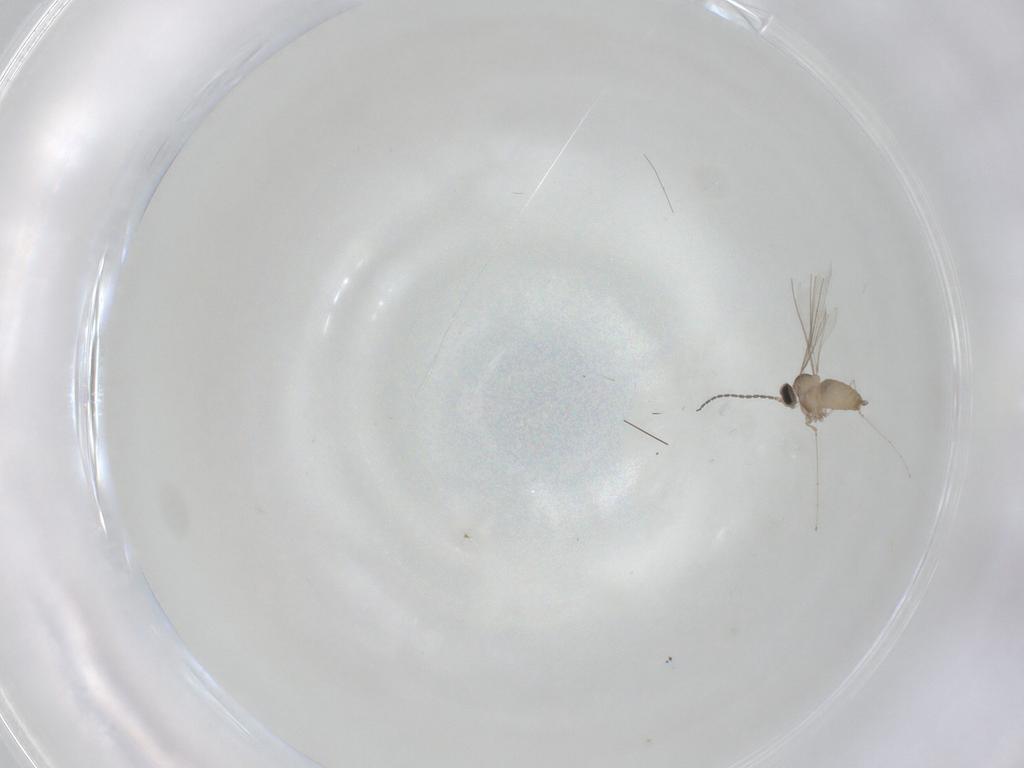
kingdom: Animalia
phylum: Arthropoda
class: Insecta
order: Diptera
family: Cecidomyiidae
